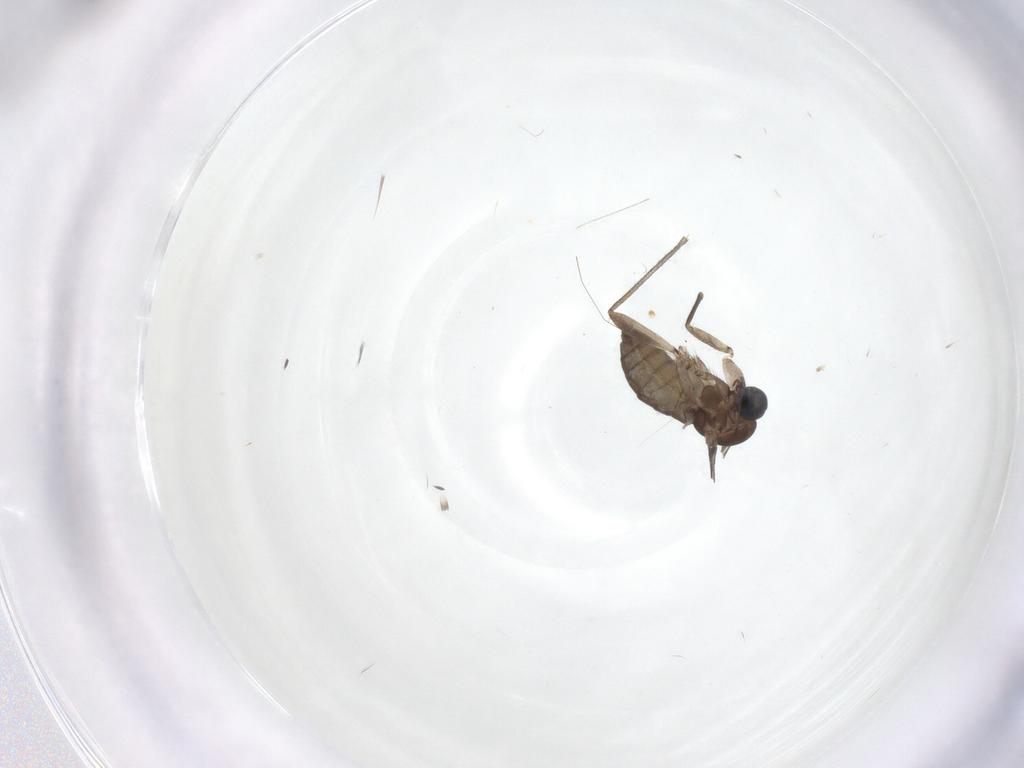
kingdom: Animalia
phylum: Arthropoda
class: Insecta
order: Diptera
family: Sciaridae
